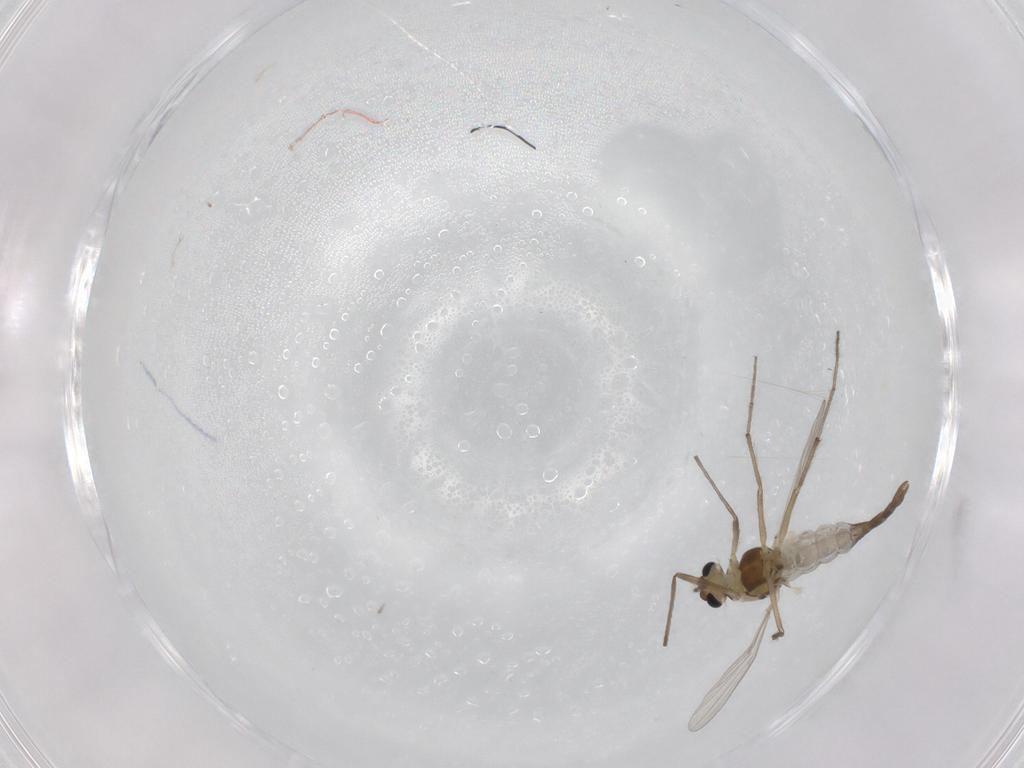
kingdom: Animalia
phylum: Arthropoda
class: Insecta
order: Diptera
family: Chironomidae
